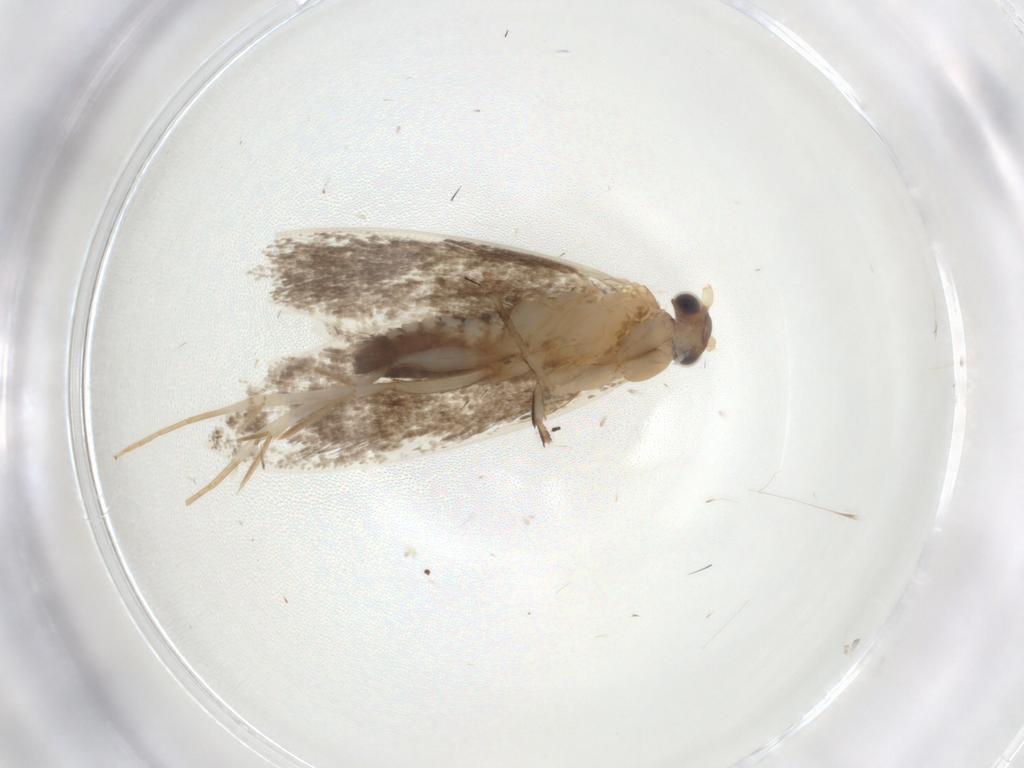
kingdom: Animalia
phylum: Arthropoda
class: Insecta
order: Lepidoptera
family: Tineidae
